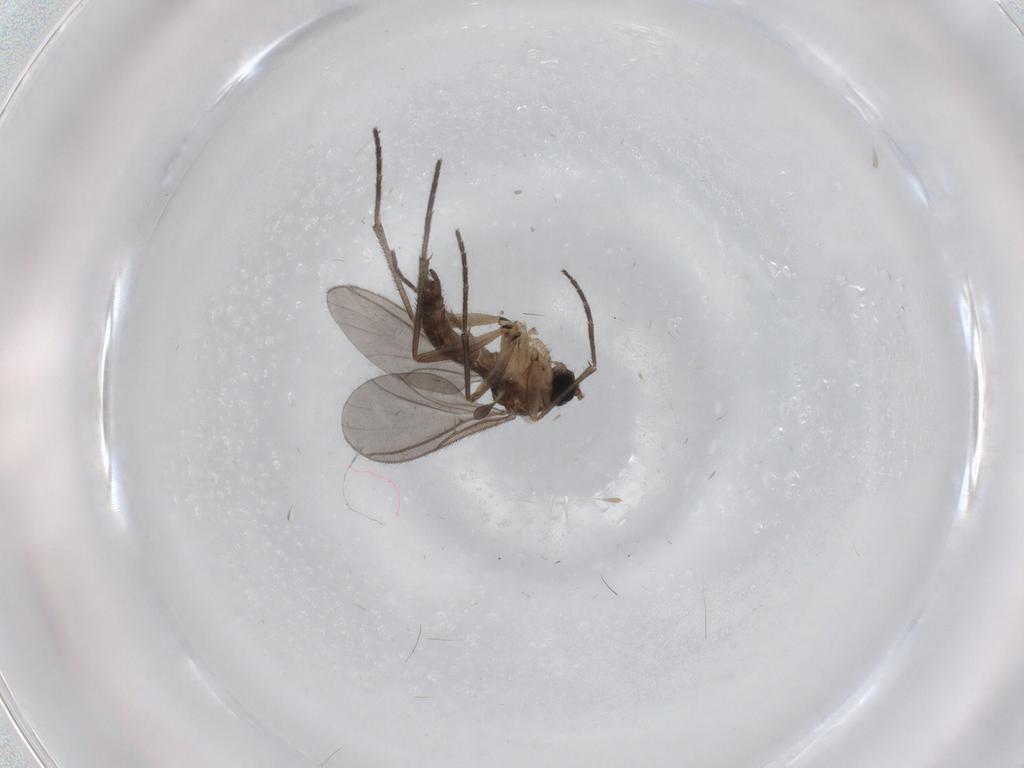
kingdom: Animalia
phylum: Arthropoda
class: Insecta
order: Diptera
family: Sciaridae
